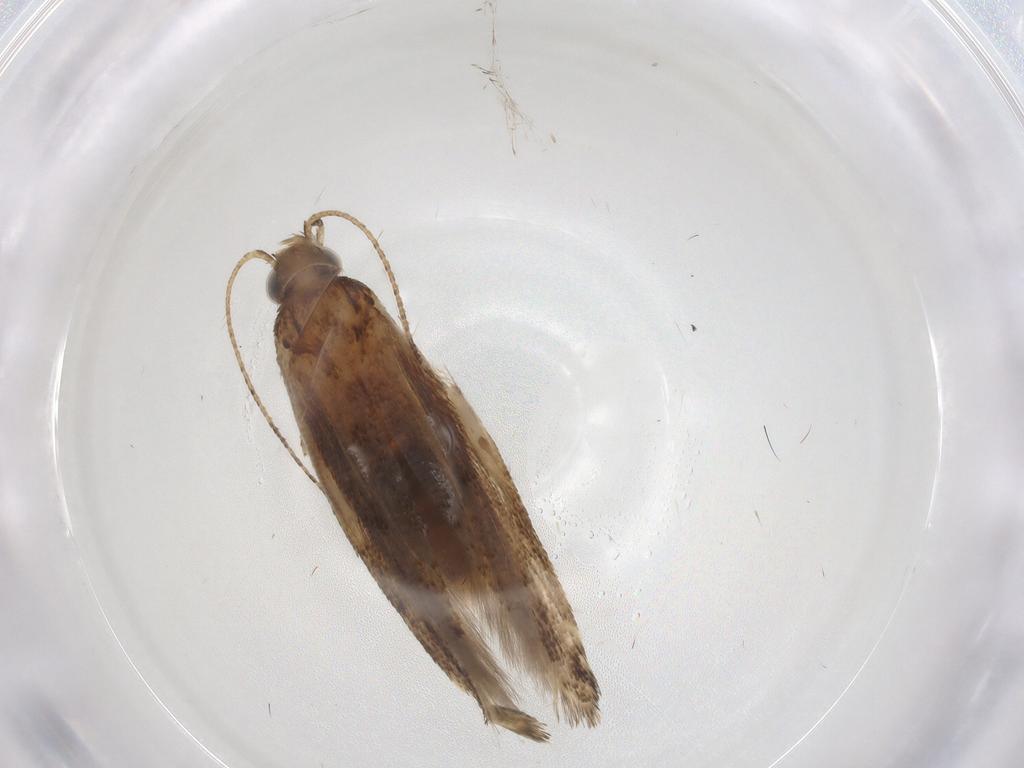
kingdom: Animalia
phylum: Arthropoda
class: Insecta
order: Lepidoptera
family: Gelechiidae
